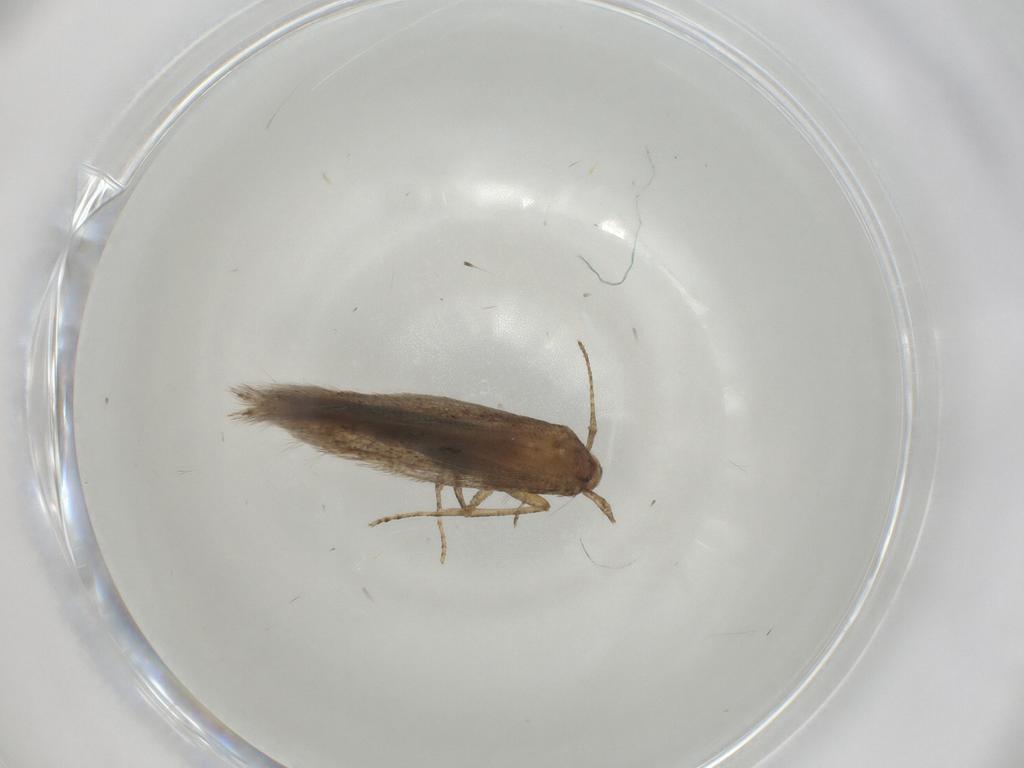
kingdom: Animalia
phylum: Arthropoda
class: Insecta
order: Lepidoptera
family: Elachistidae
